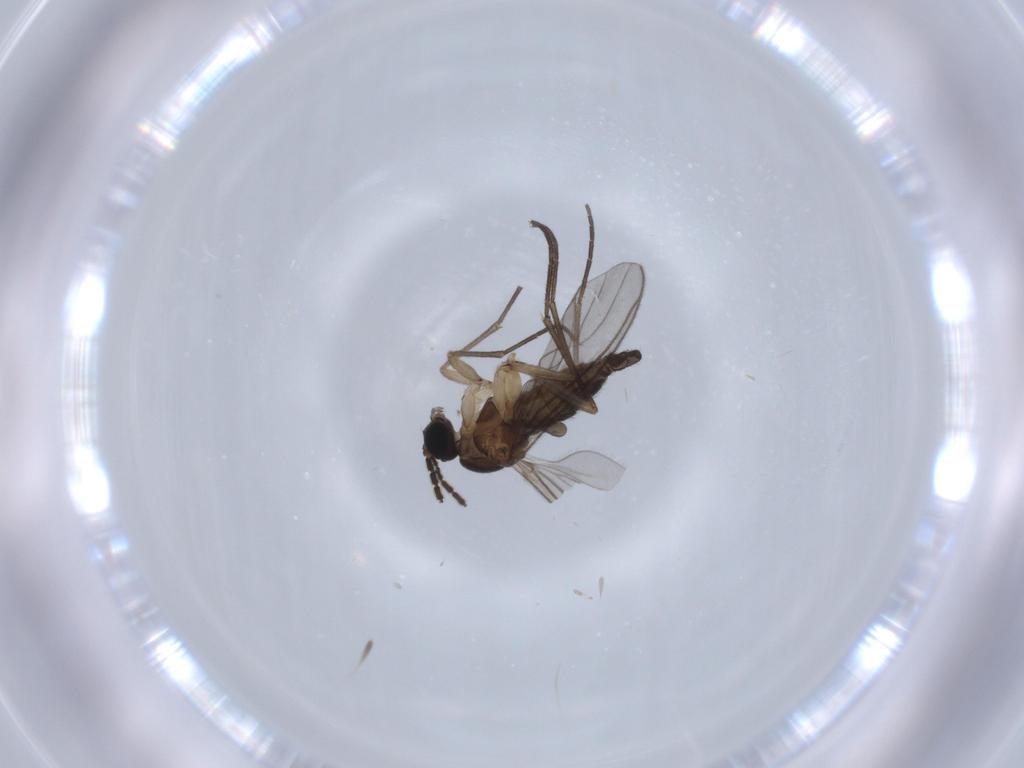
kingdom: Animalia
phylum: Arthropoda
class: Insecta
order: Diptera
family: Sciaridae
